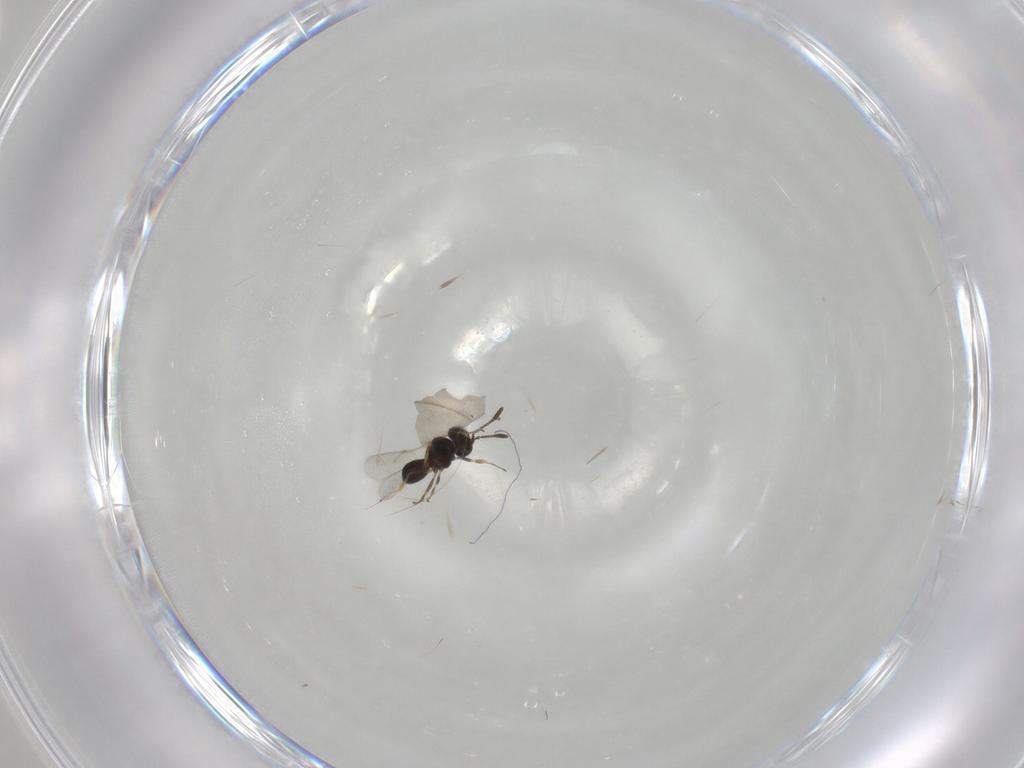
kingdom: Animalia
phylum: Arthropoda
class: Insecta
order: Hymenoptera
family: Scelionidae
